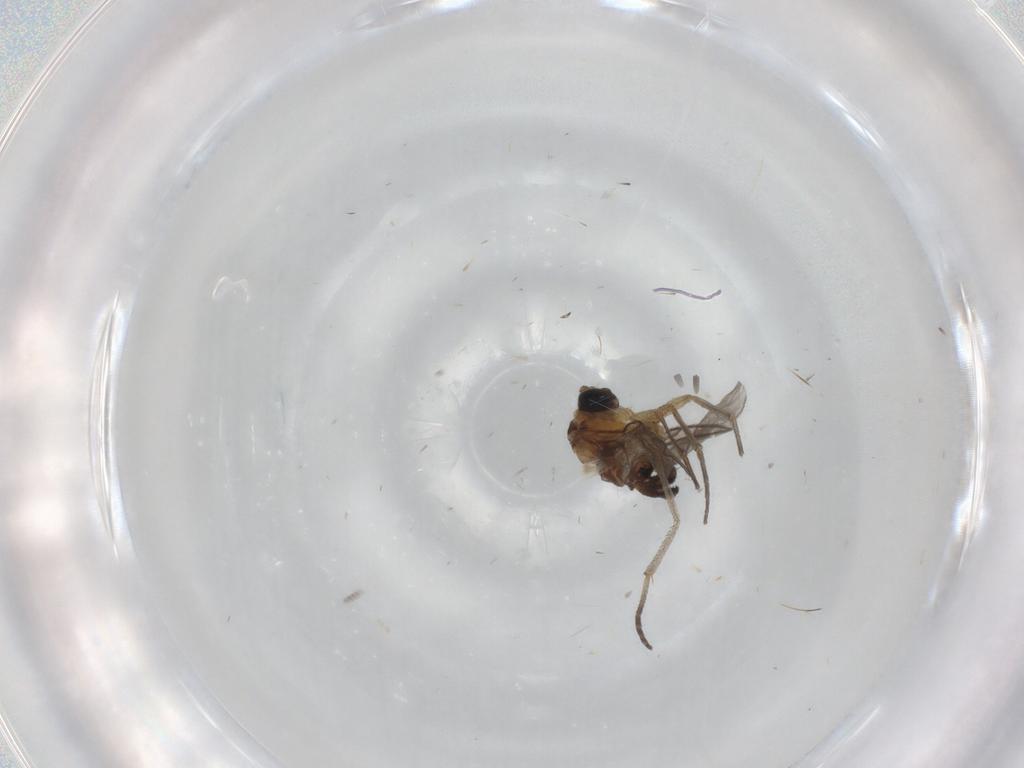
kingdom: Animalia
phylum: Arthropoda
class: Insecta
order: Diptera
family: Sciaridae
